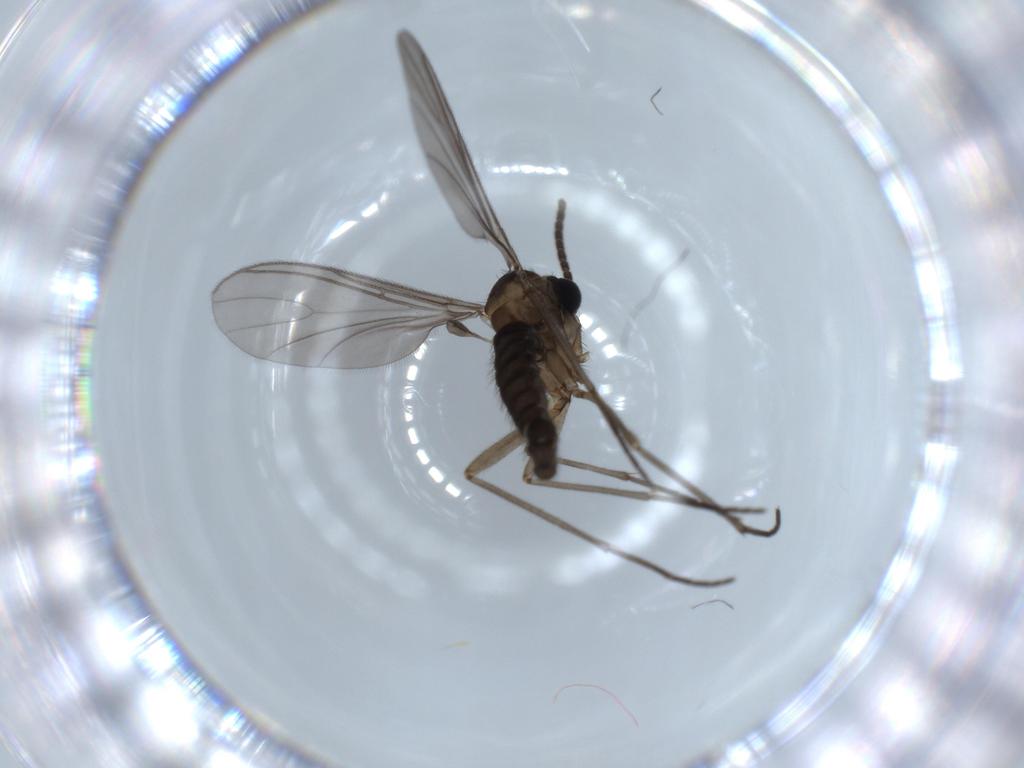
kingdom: Animalia
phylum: Arthropoda
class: Insecta
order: Diptera
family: Sciaridae
